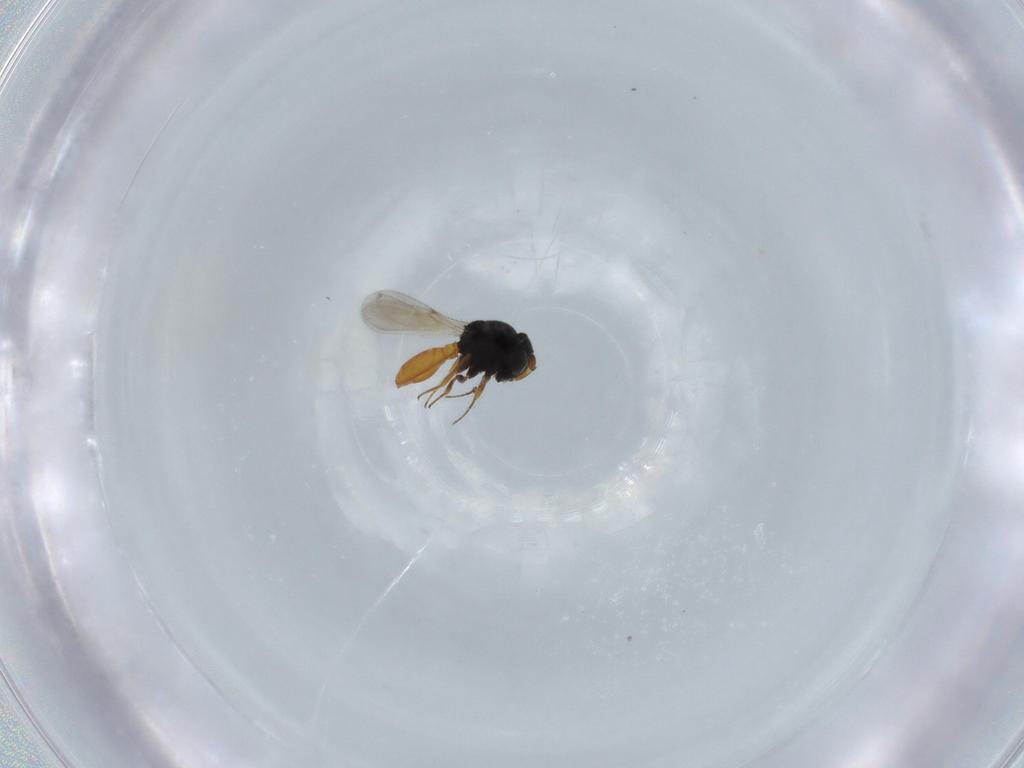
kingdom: Animalia
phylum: Arthropoda
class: Insecta
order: Hymenoptera
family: Scelionidae
